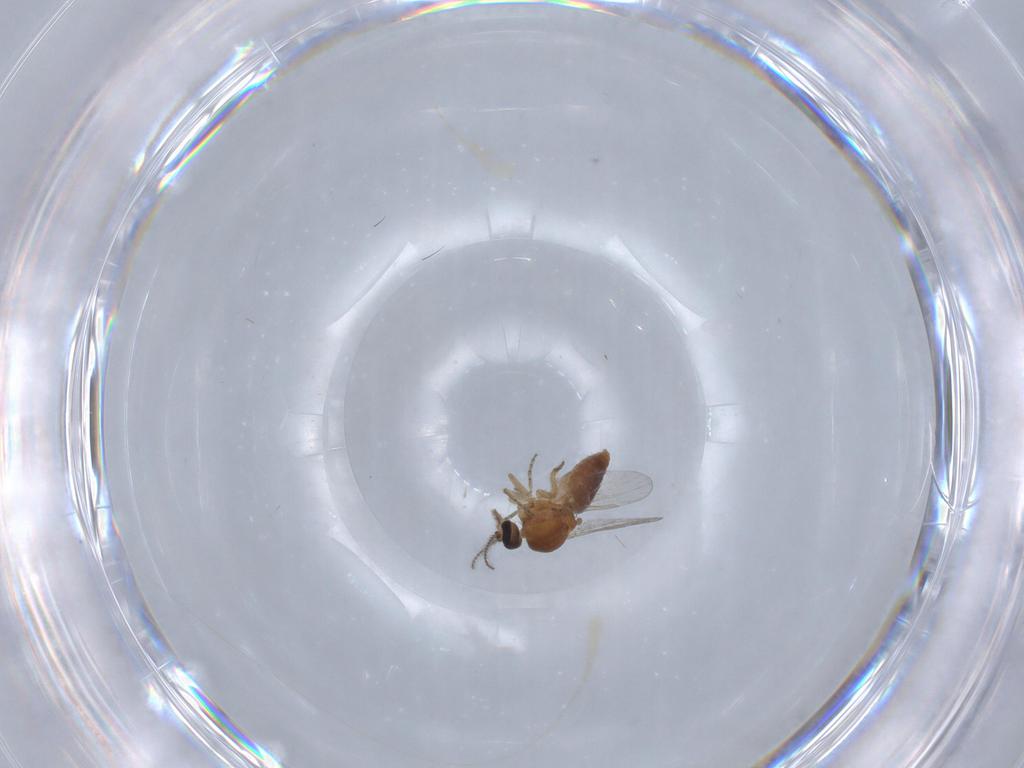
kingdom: Animalia
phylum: Arthropoda
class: Insecta
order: Diptera
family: Ceratopogonidae
